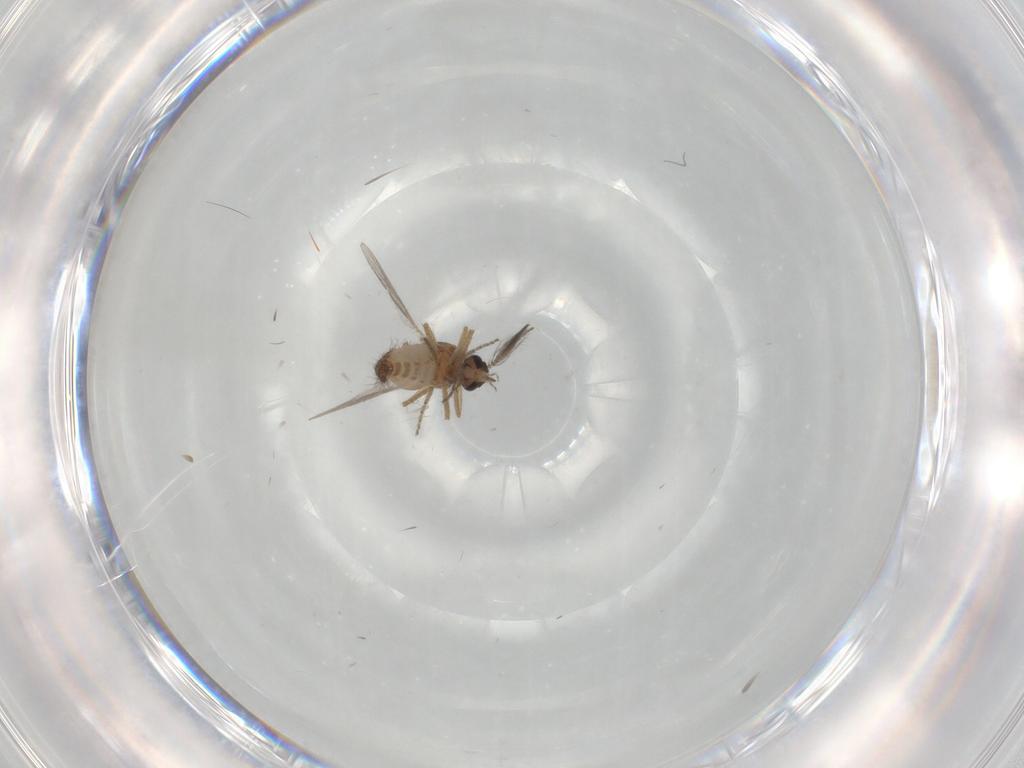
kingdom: Animalia
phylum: Arthropoda
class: Insecta
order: Diptera
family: Ceratopogonidae
